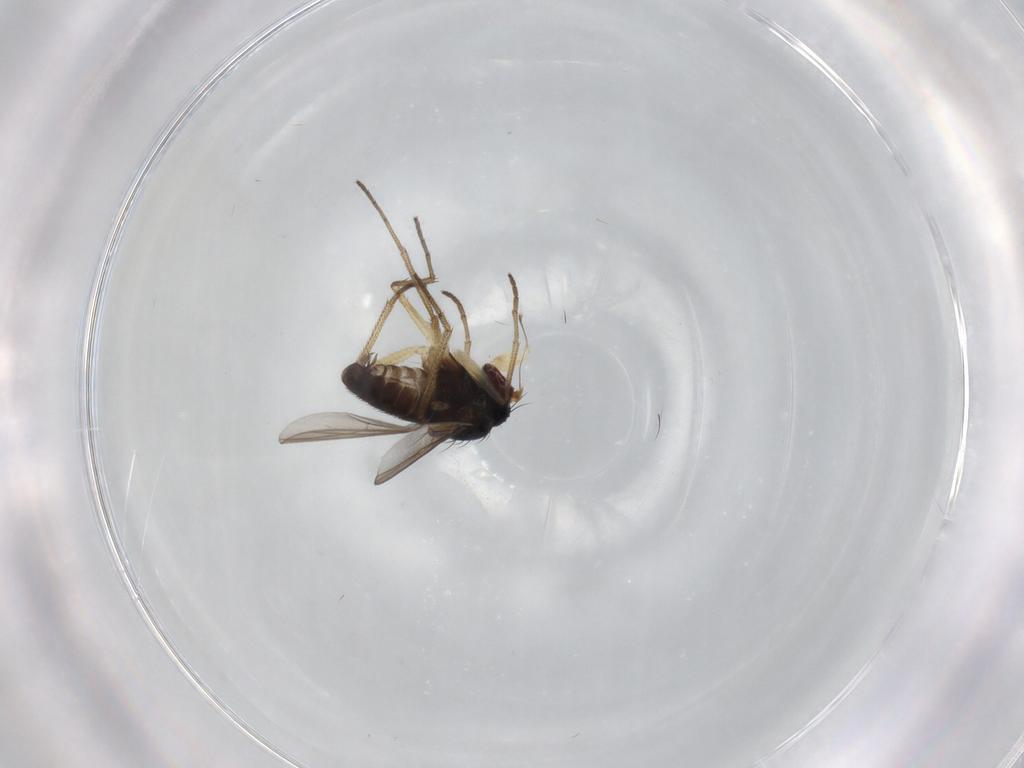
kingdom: Animalia
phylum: Arthropoda
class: Insecta
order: Diptera
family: Dolichopodidae
